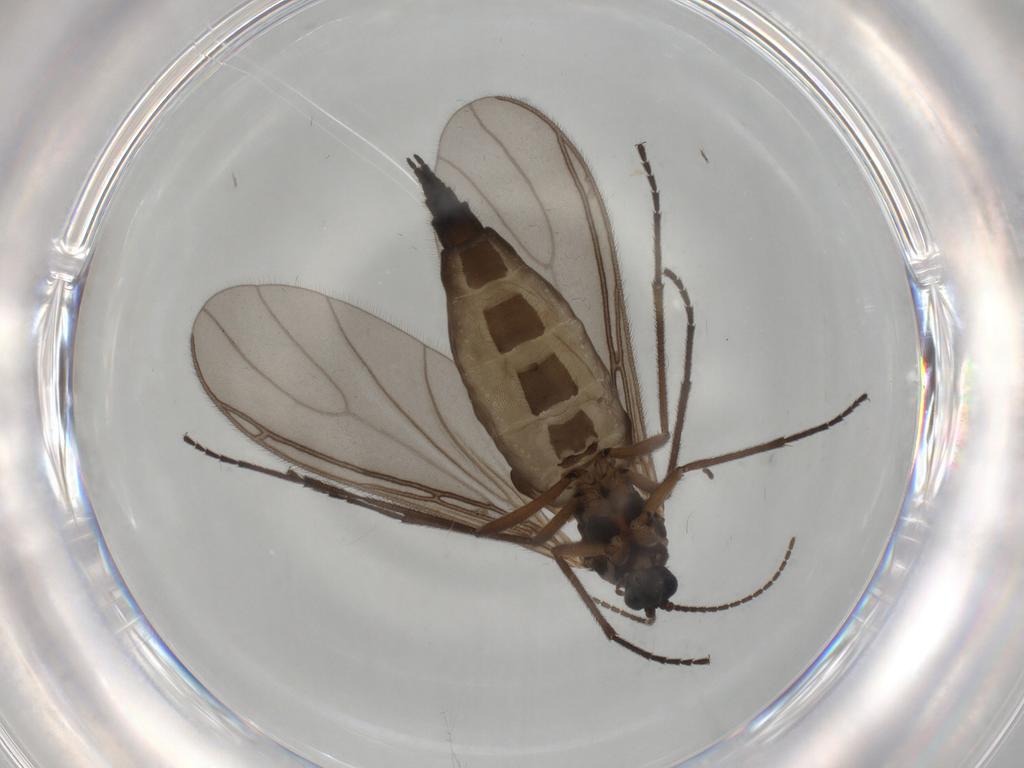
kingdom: Animalia
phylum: Arthropoda
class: Insecta
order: Diptera
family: Sciaridae
